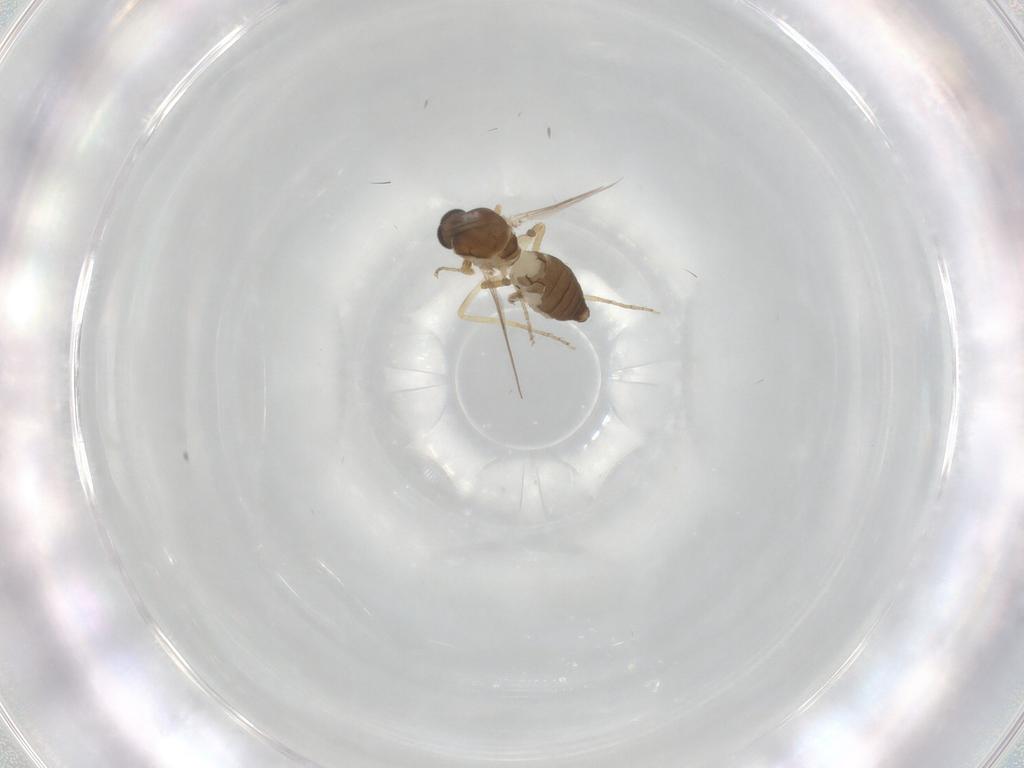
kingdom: Animalia
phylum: Arthropoda
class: Insecta
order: Diptera
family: Ceratopogonidae
